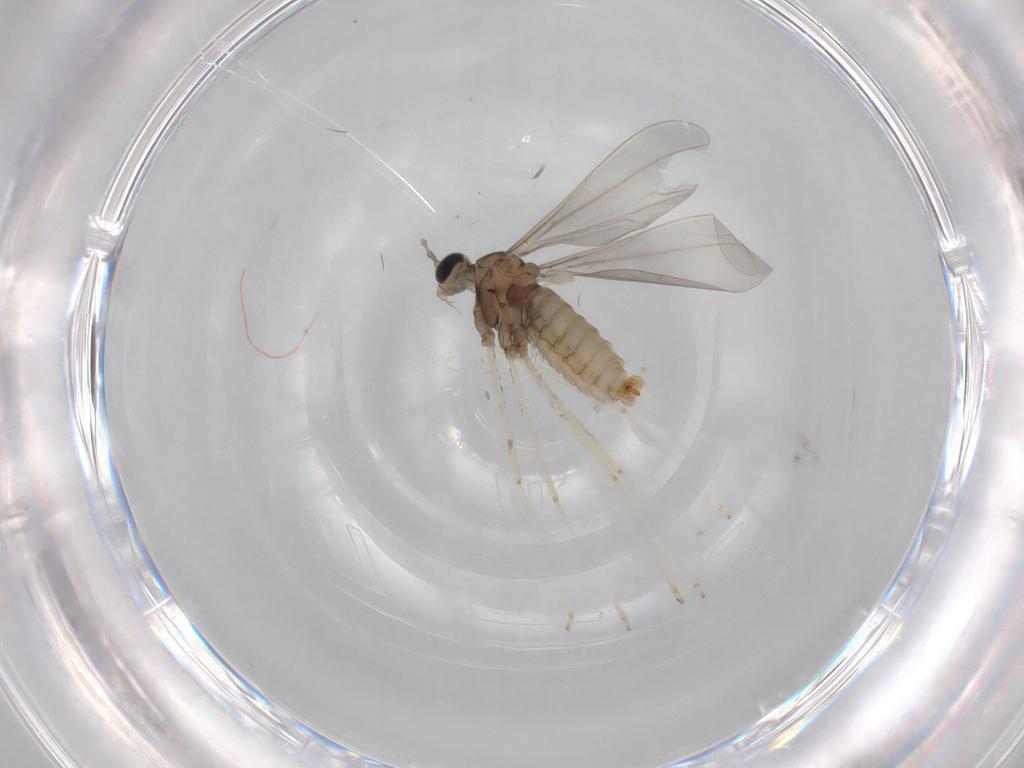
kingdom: Animalia
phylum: Arthropoda
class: Insecta
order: Diptera
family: Cecidomyiidae
